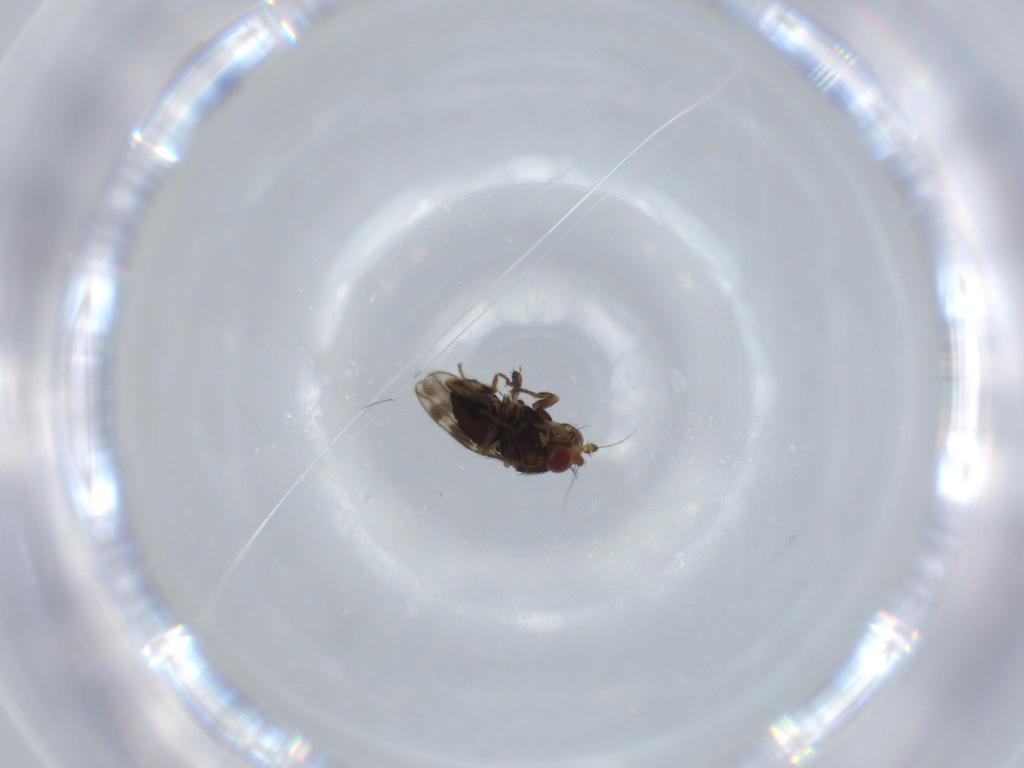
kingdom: Animalia
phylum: Arthropoda
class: Insecta
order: Diptera
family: Sphaeroceridae
